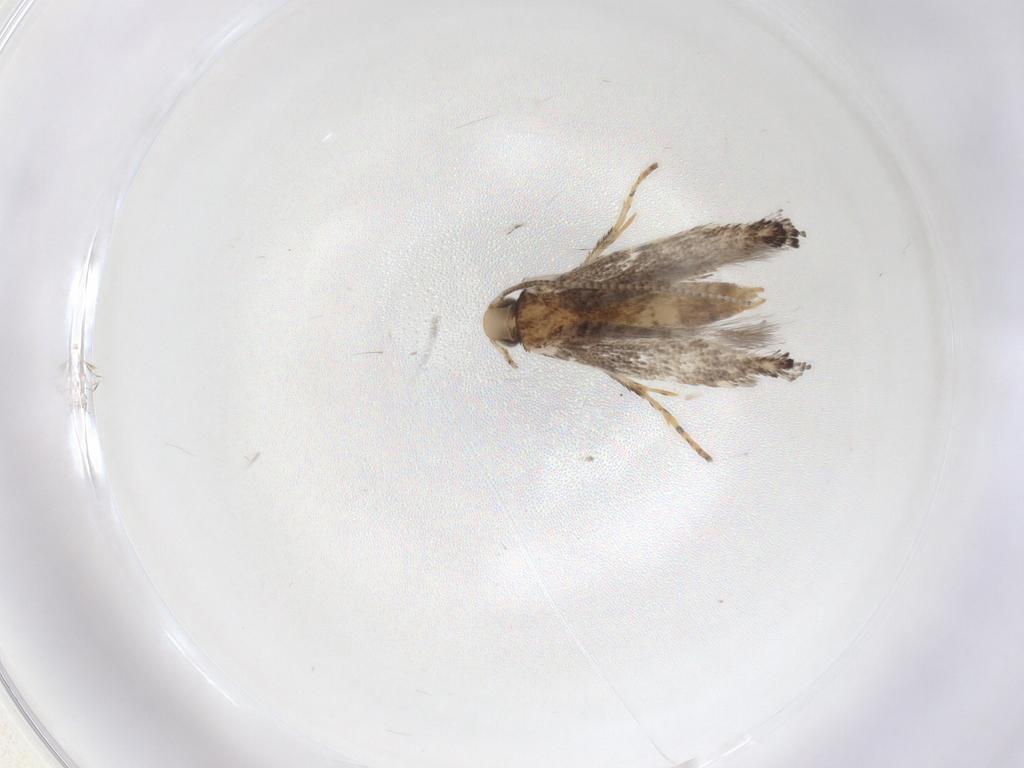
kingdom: Animalia
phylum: Arthropoda
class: Insecta
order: Lepidoptera
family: Gracillariidae
